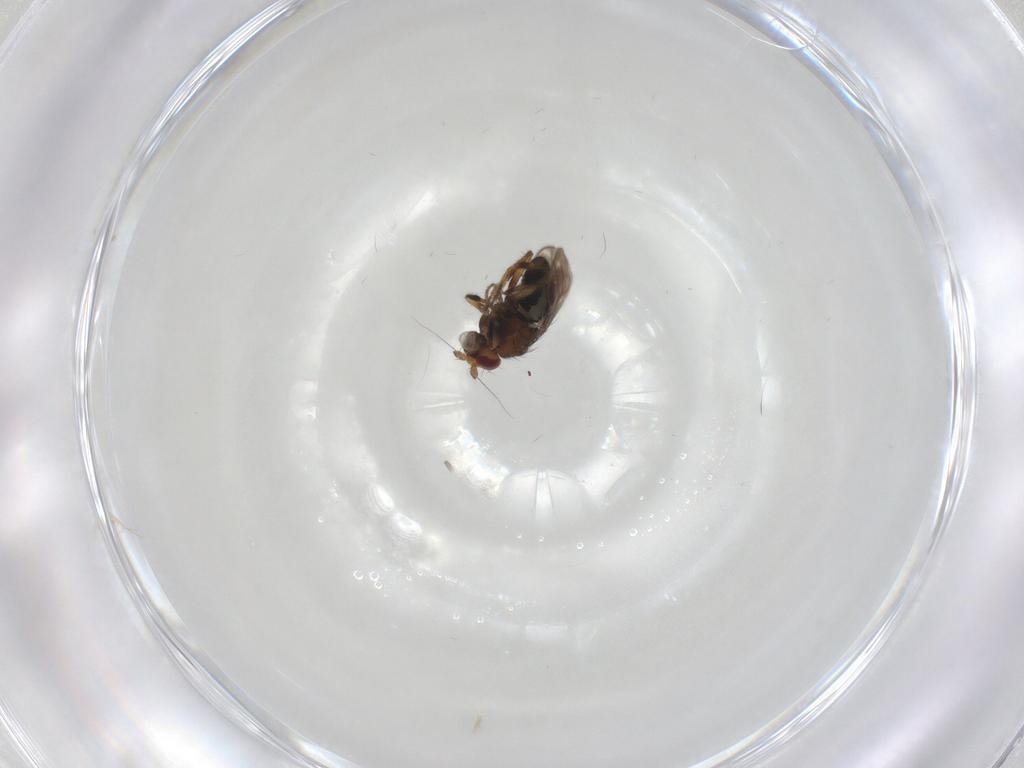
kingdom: Animalia
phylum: Arthropoda
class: Insecta
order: Diptera
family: Sphaeroceridae
